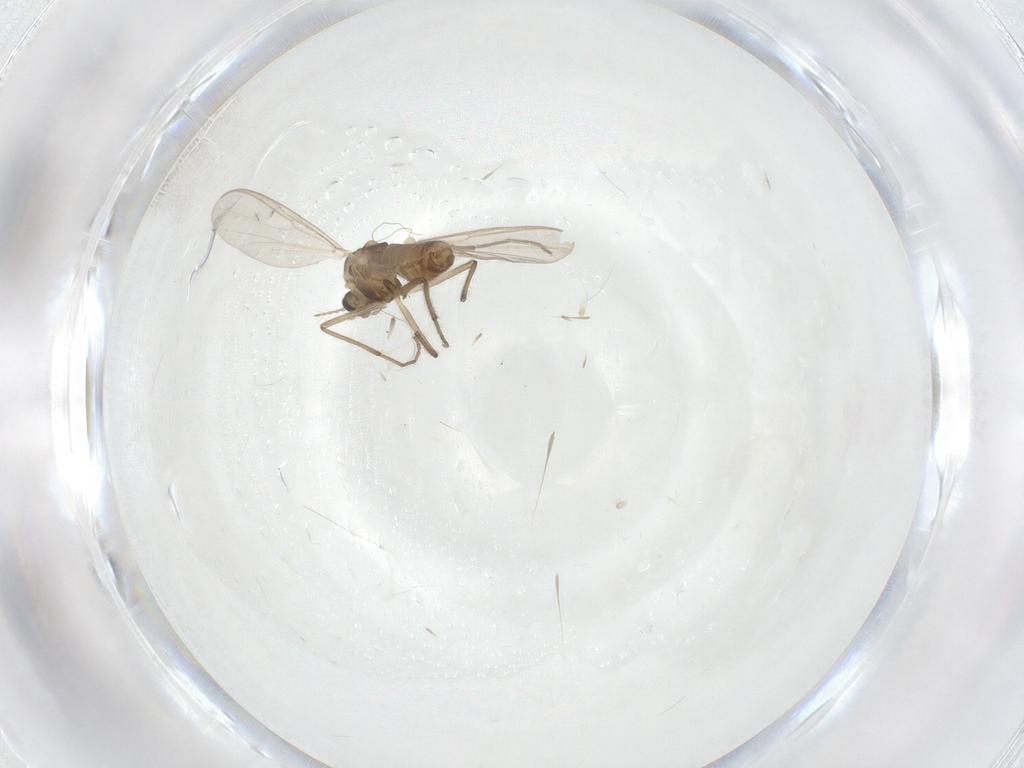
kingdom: Animalia
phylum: Arthropoda
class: Insecta
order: Diptera
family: Chironomidae
